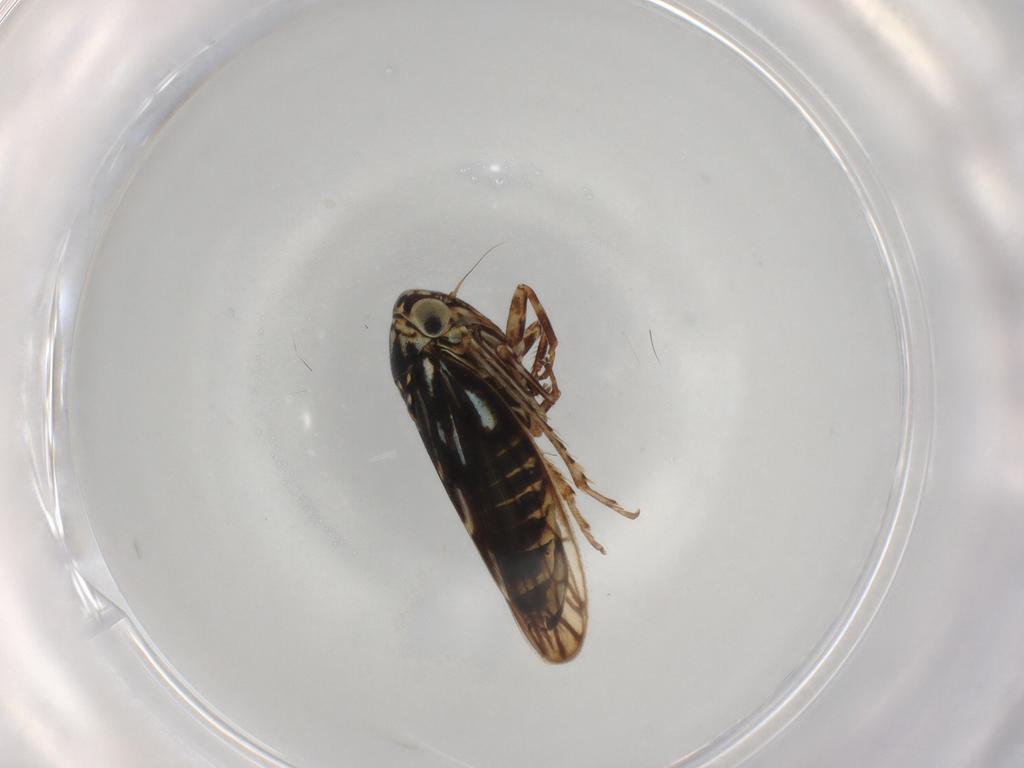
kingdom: Animalia
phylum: Arthropoda
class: Insecta
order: Hemiptera
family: Cicadellidae
